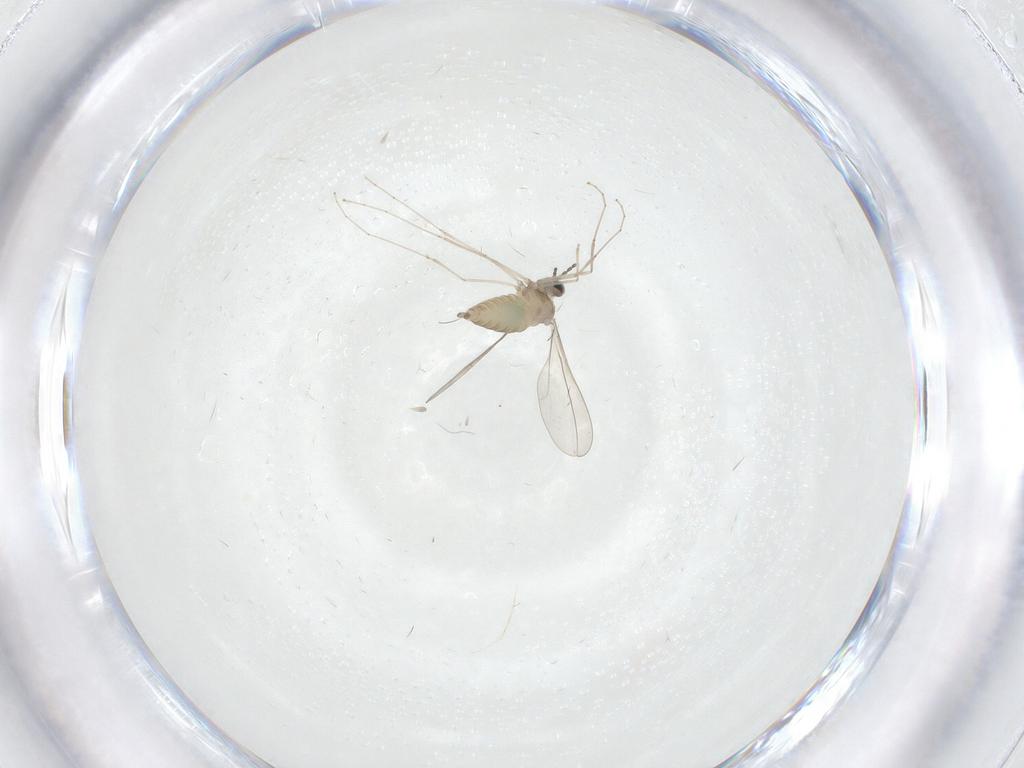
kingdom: Animalia
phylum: Arthropoda
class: Insecta
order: Diptera
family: Cecidomyiidae
